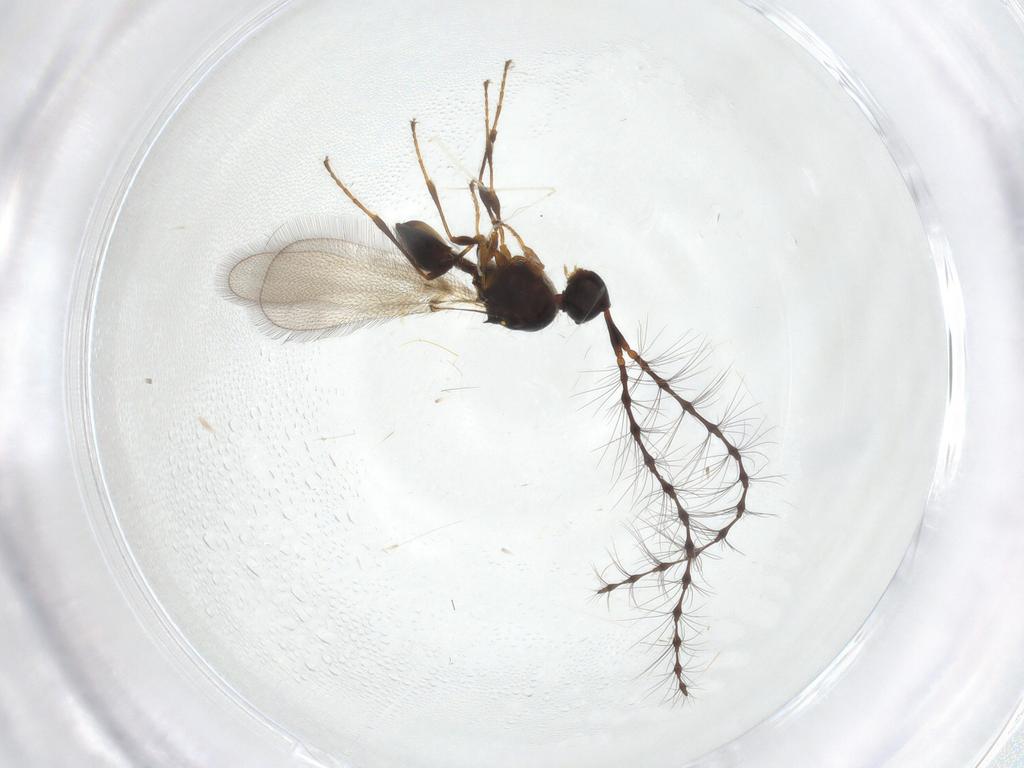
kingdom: Animalia
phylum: Arthropoda
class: Insecta
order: Hymenoptera
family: Diapriidae
